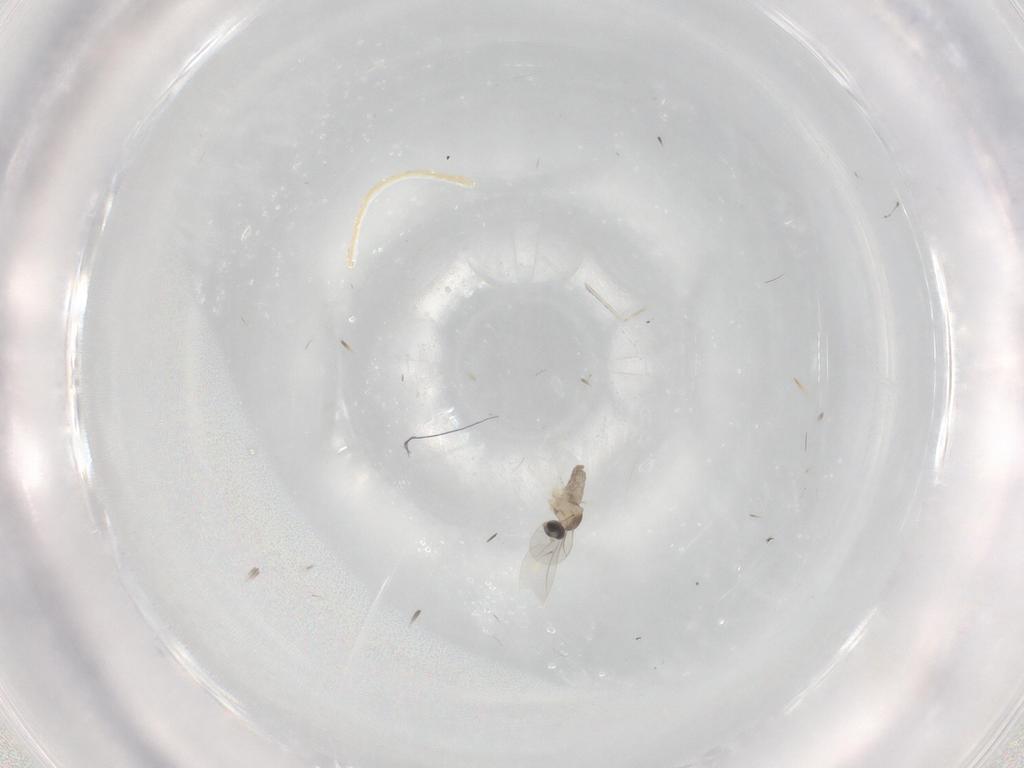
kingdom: Animalia
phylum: Arthropoda
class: Insecta
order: Diptera
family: Cecidomyiidae
